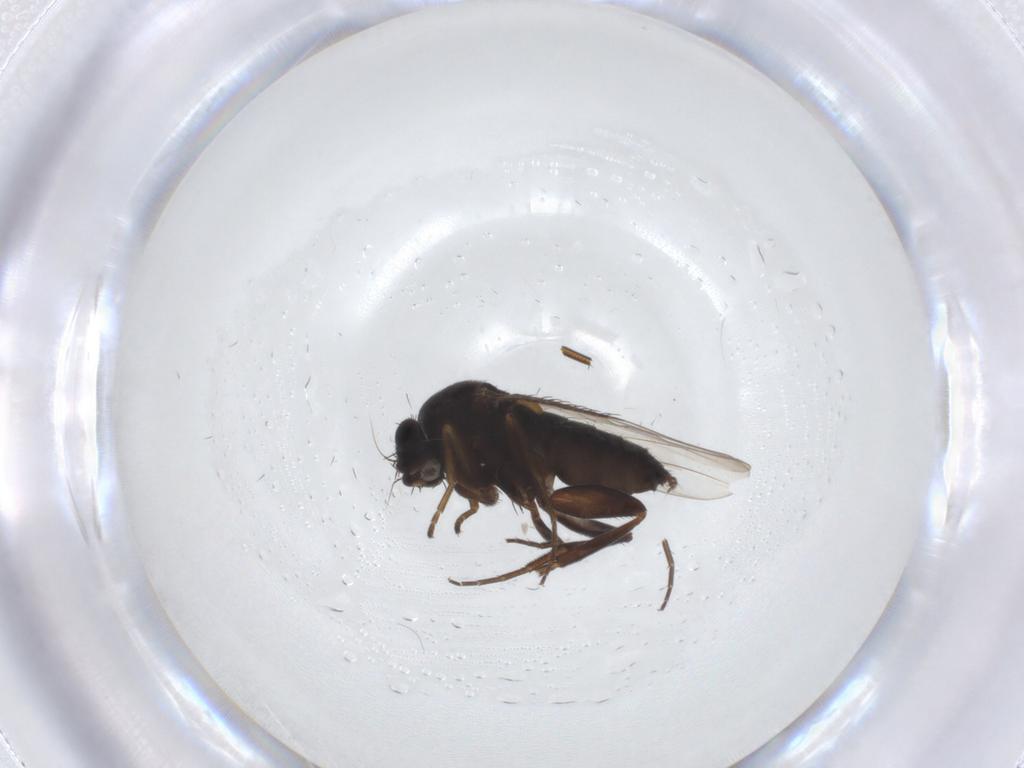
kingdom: Animalia
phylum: Arthropoda
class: Insecta
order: Diptera
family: Phoridae
